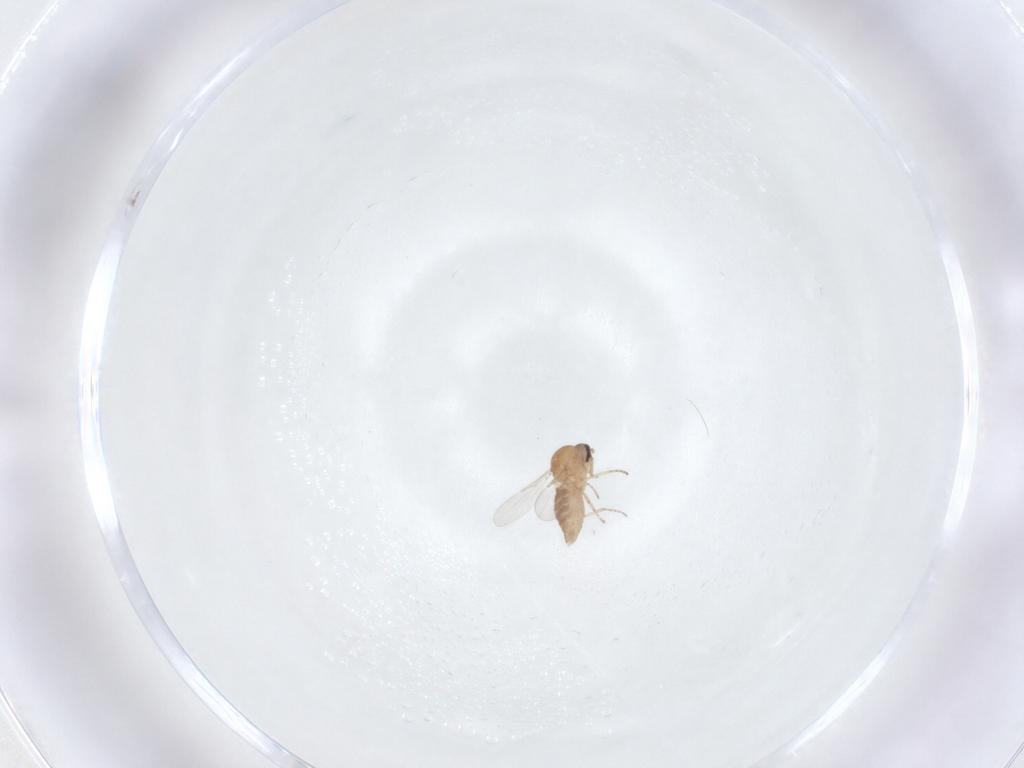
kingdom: Animalia
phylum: Arthropoda
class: Insecta
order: Diptera
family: Ceratopogonidae
